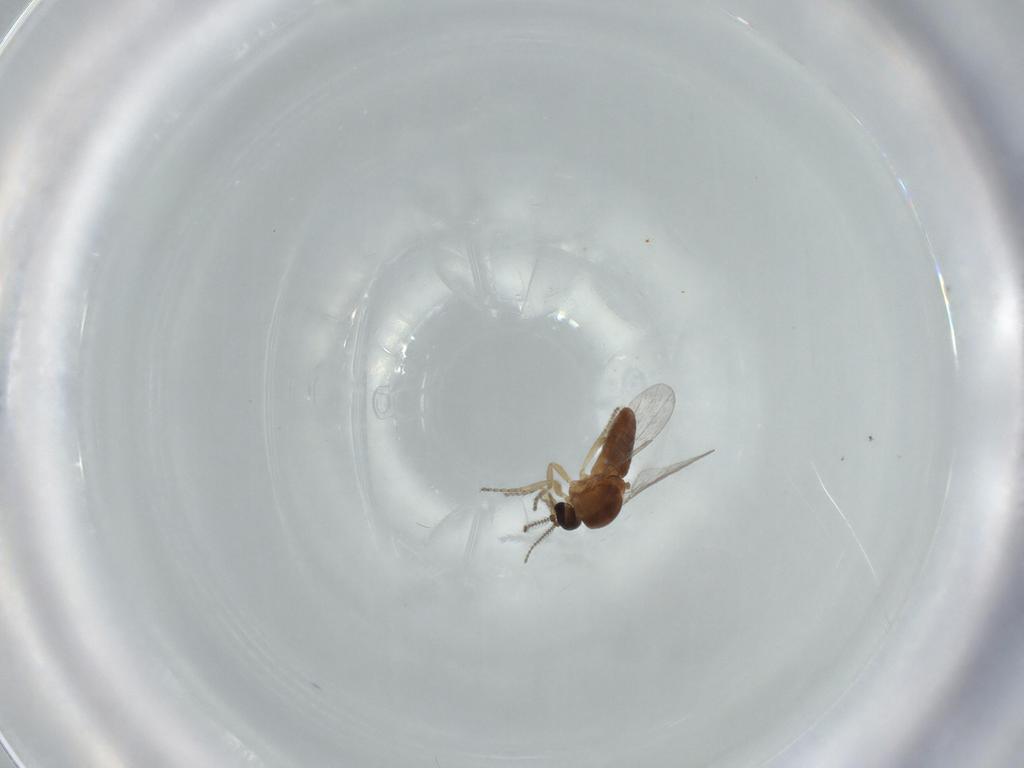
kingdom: Animalia
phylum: Arthropoda
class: Insecta
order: Diptera
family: Ceratopogonidae
